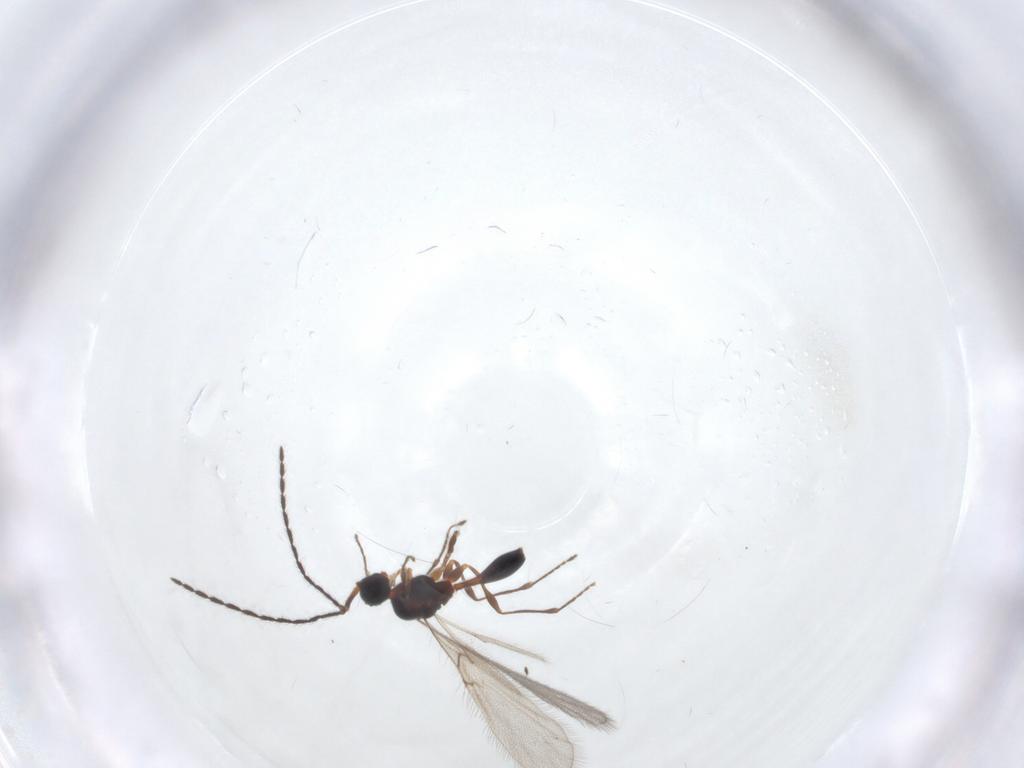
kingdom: Animalia
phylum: Arthropoda
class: Insecta
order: Hymenoptera
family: Diapriidae
